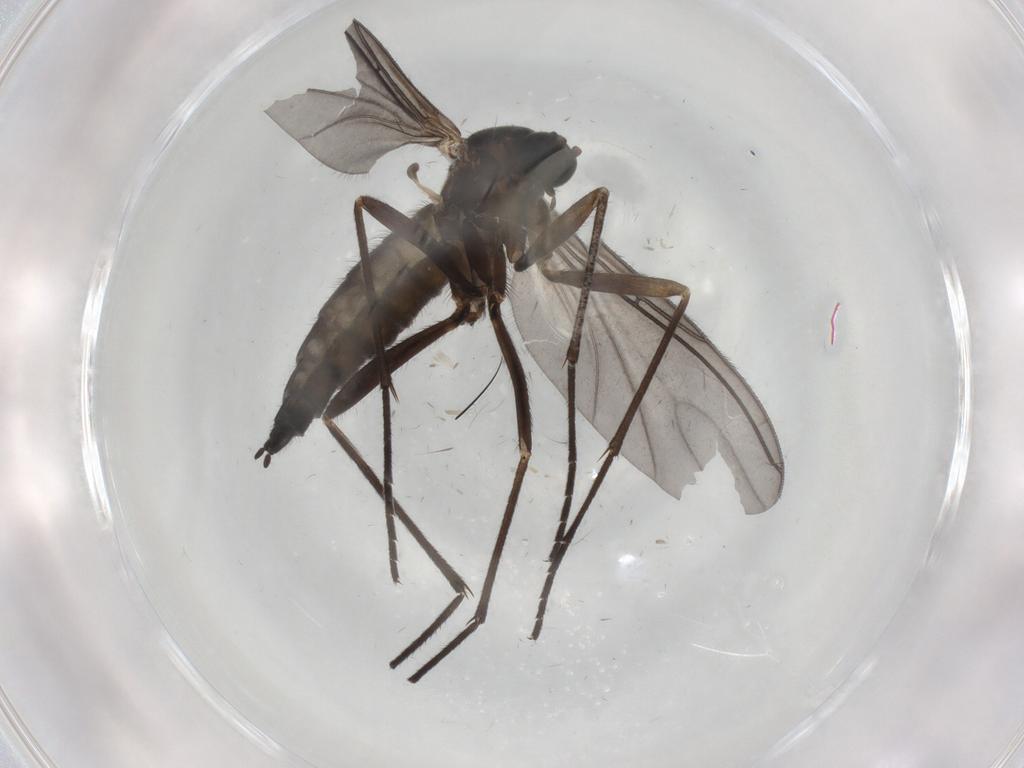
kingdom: Animalia
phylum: Arthropoda
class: Insecta
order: Diptera
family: Sciaridae
